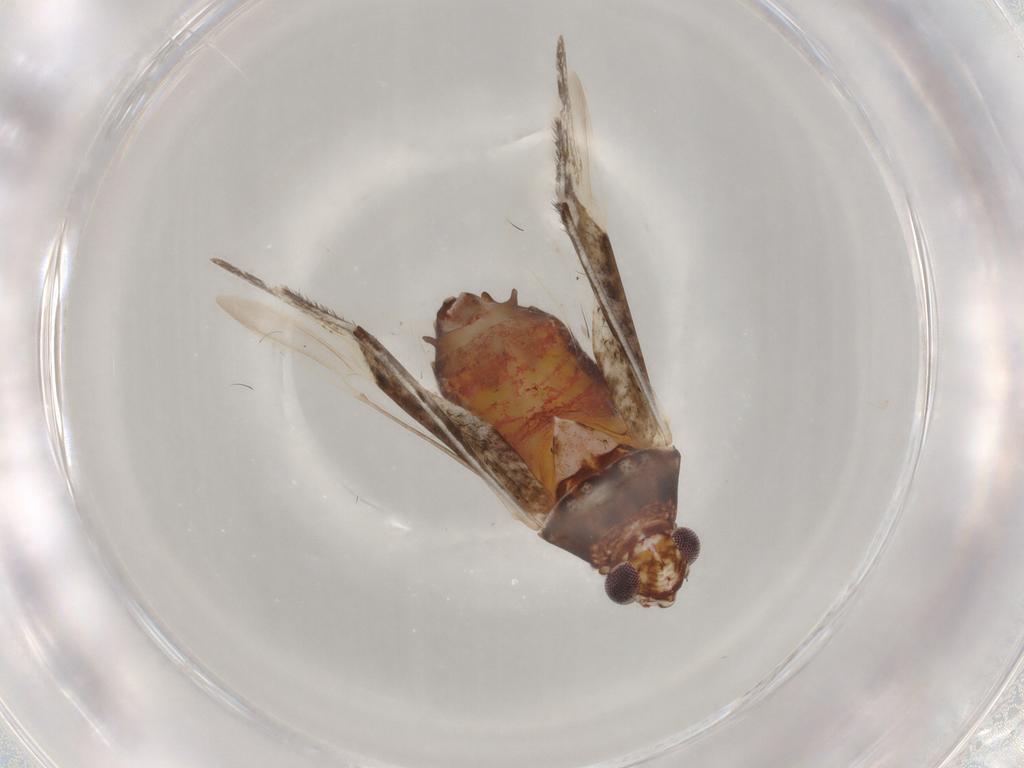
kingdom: Animalia
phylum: Arthropoda
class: Insecta
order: Hemiptera
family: Miridae
